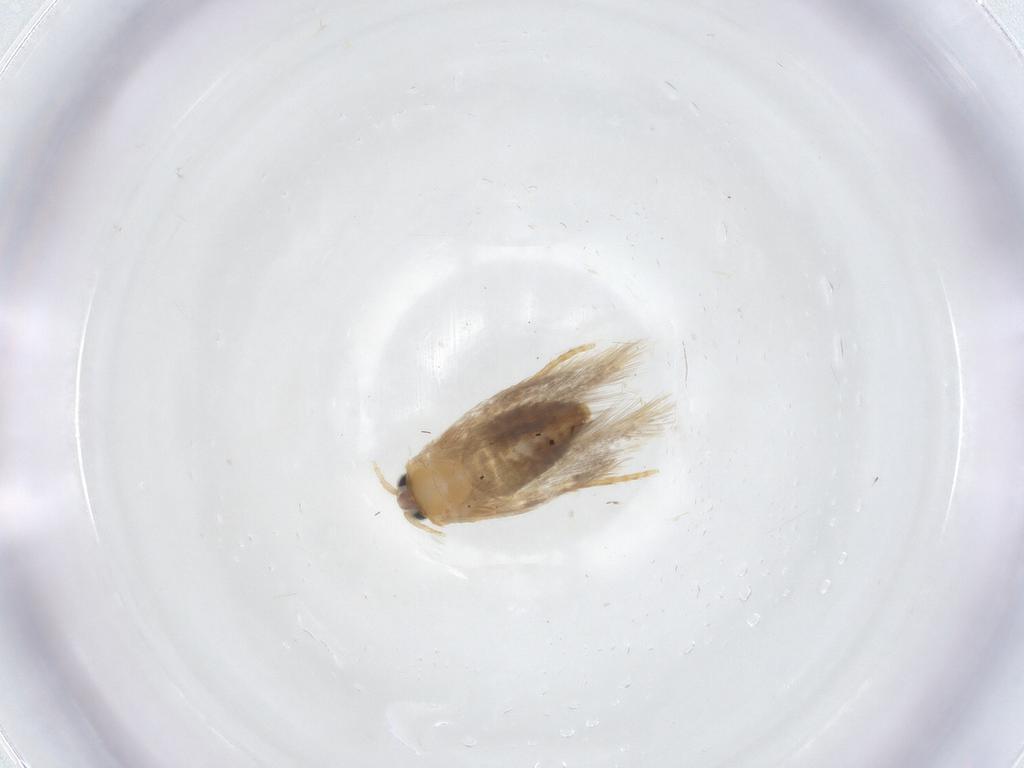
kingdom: Animalia
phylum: Arthropoda
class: Insecta
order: Lepidoptera
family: Nepticulidae
